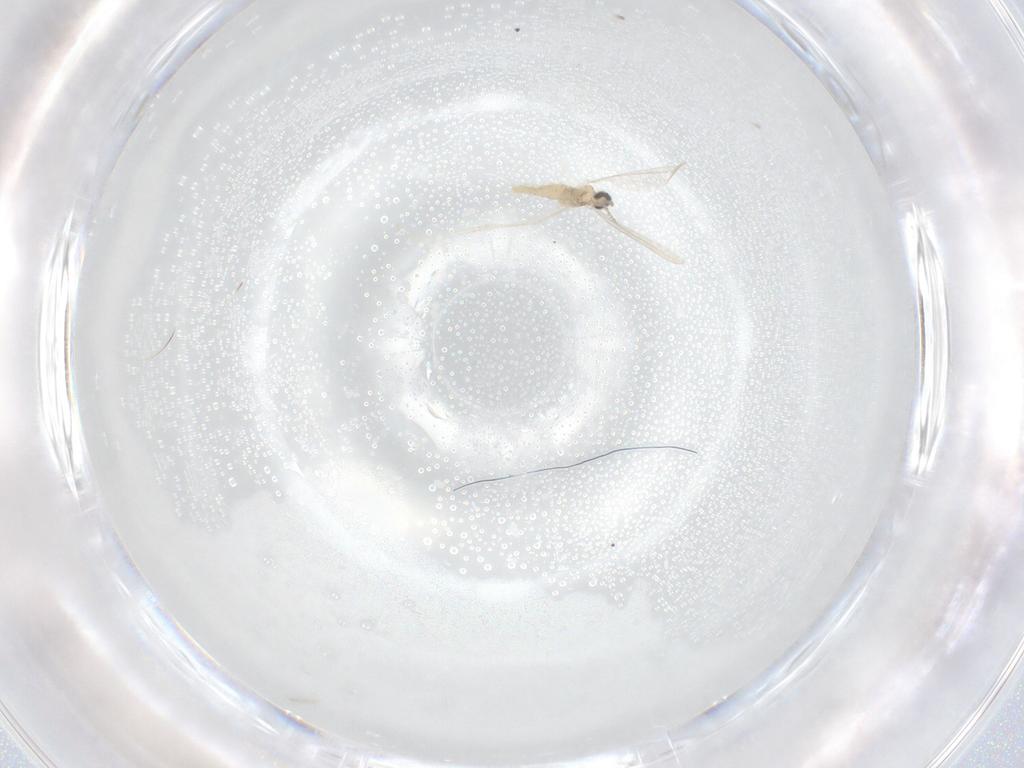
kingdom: Animalia
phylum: Arthropoda
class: Insecta
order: Diptera
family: Cecidomyiidae
